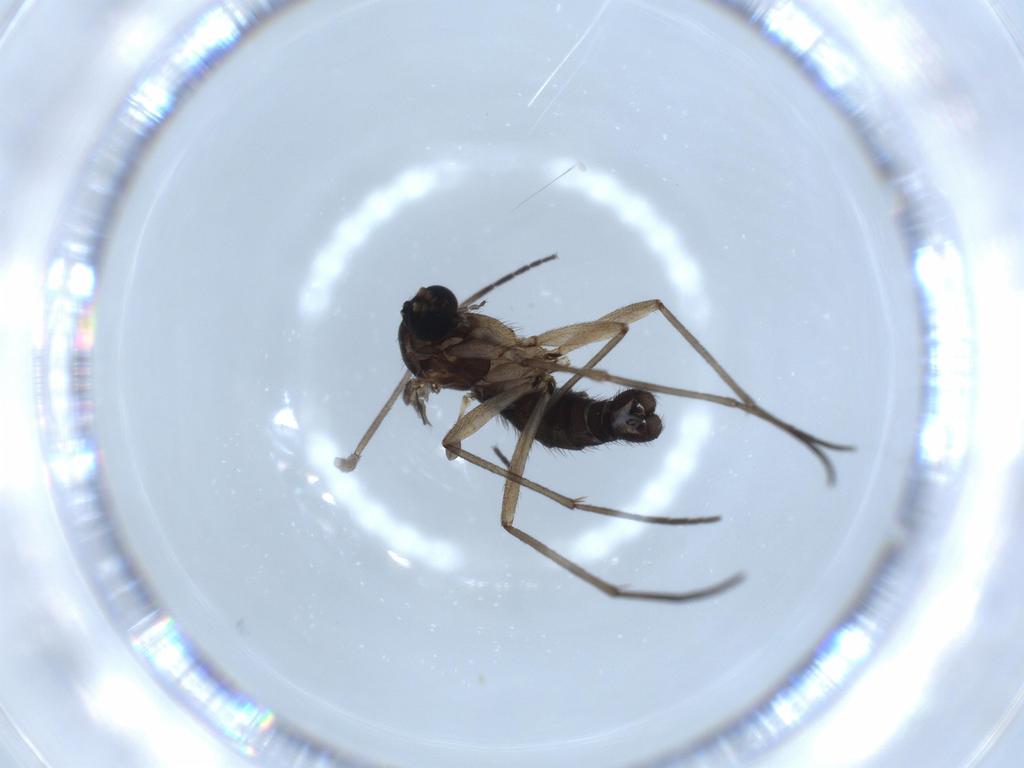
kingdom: Animalia
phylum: Arthropoda
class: Insecta
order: Diptera
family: Sciaridae
